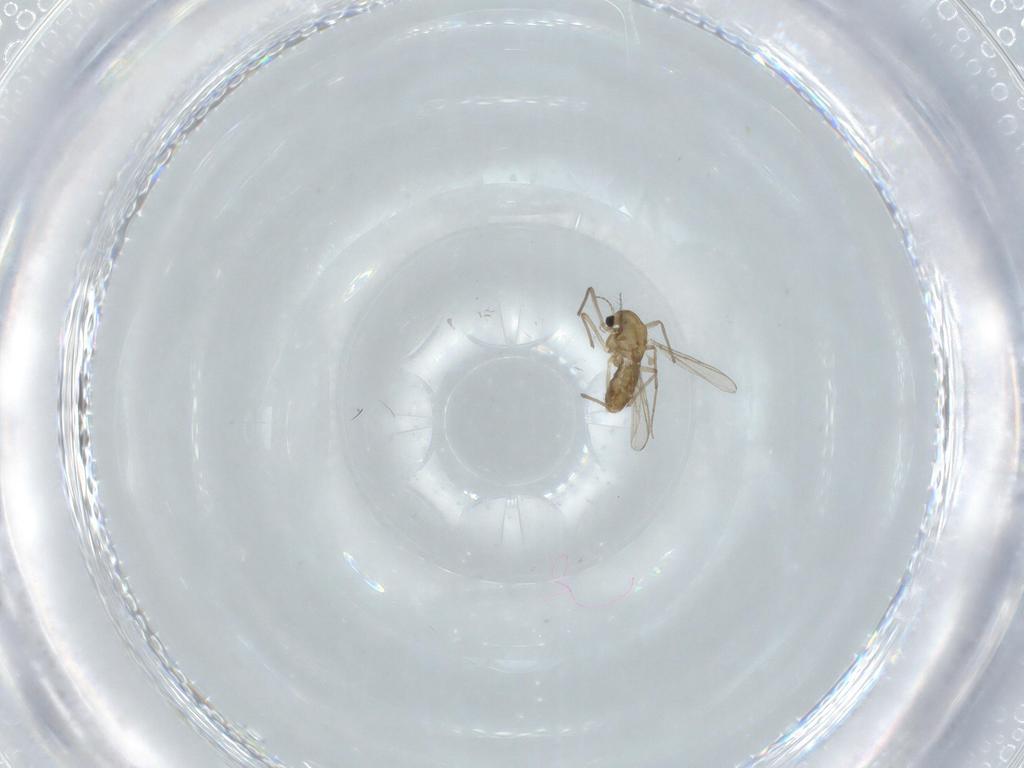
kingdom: Animalia
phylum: Arthropoda
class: Insecta
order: Diptera
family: Chironomidae
